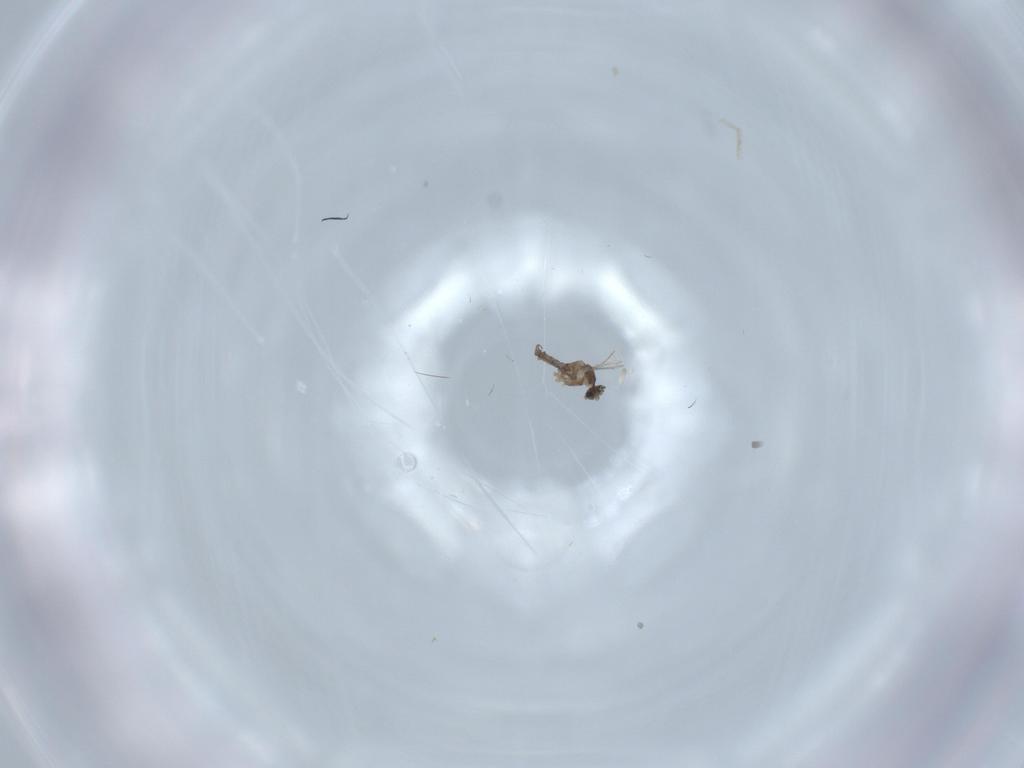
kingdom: Animalia
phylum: Arthropoda
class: Insecta
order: Diptera
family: Cecidomyiidae
